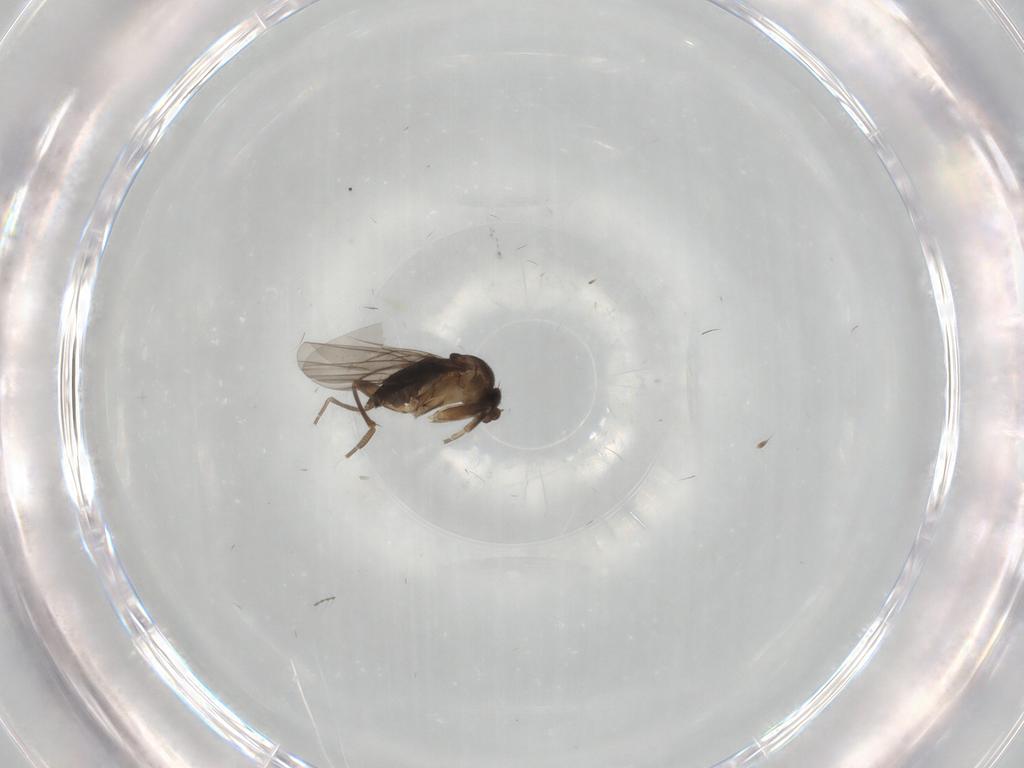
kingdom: Animalia
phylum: Arthropoda
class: Insecta
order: Diptera
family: Chironomidae
